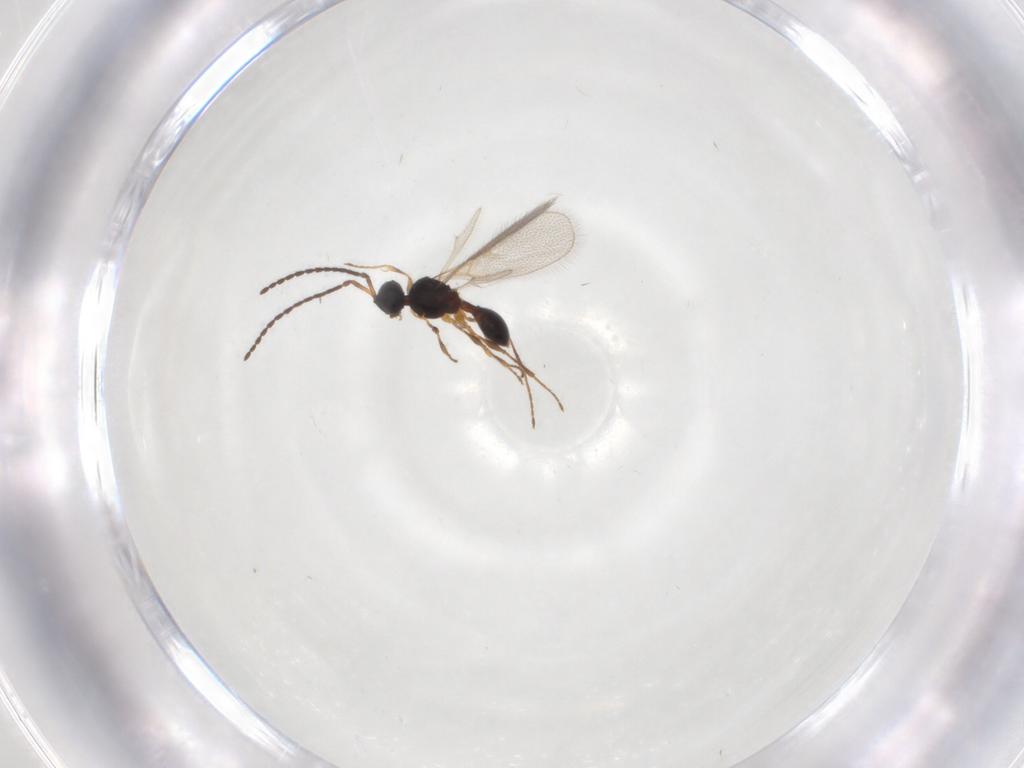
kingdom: Animalia
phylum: Arthropoda
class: Insecta
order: Hymenoptera
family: Diapriidae
